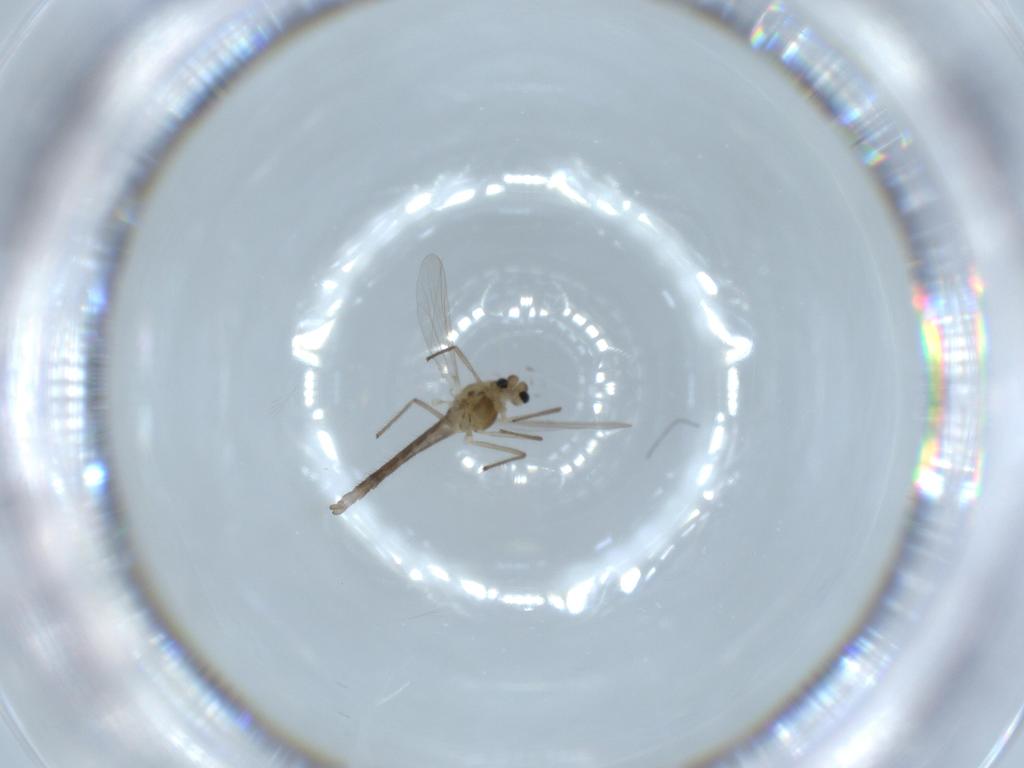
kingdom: Animalia
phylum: Arthropoda
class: Insecta
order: Diptera
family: Chironomidae
